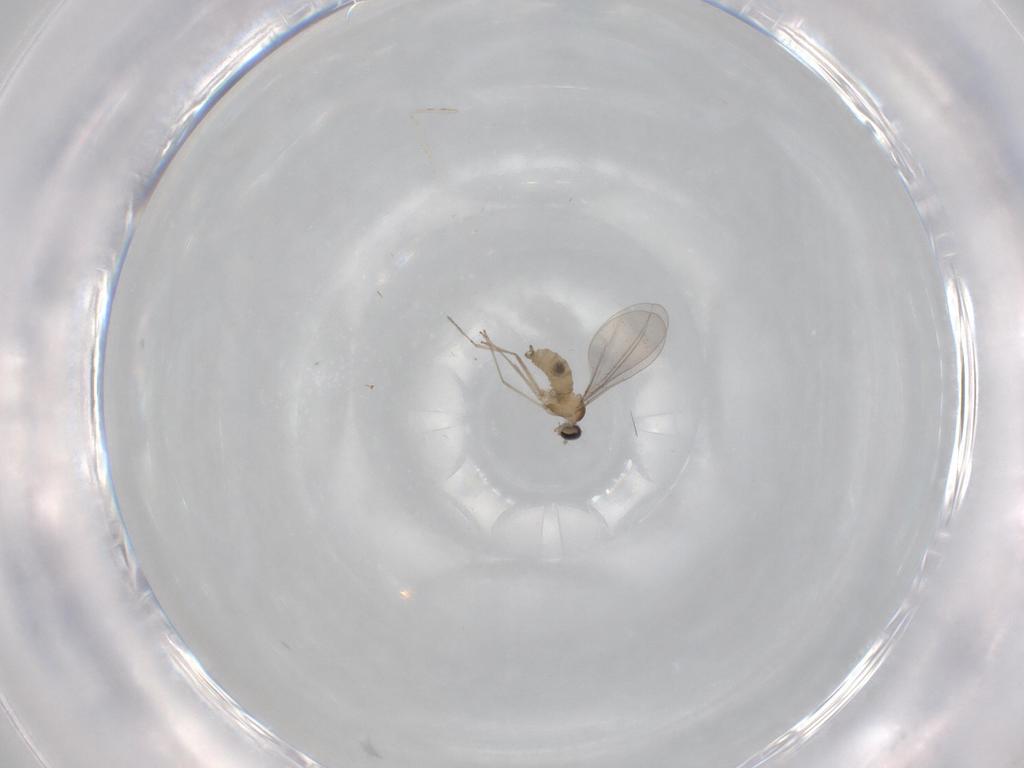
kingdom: Animalia
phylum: Arthropoda
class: Insecta
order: Diptera
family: Cecidomyiidae
